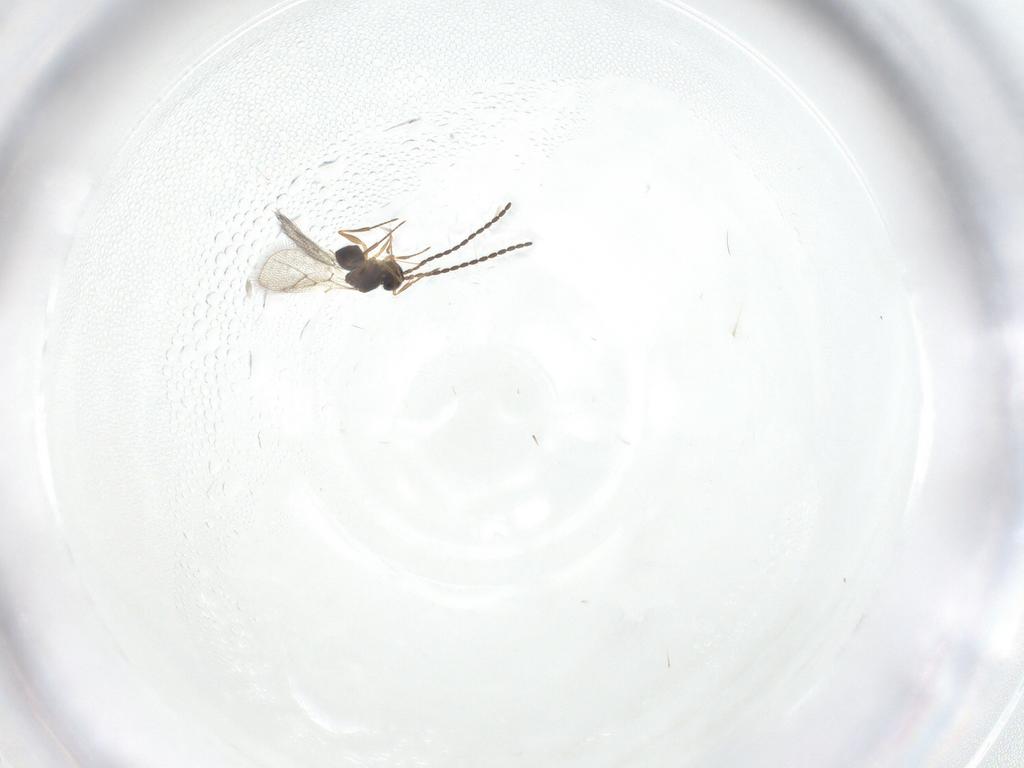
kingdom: Animalia
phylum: Arthropoda
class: Insecta
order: Hymenoptera
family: Figitidae
